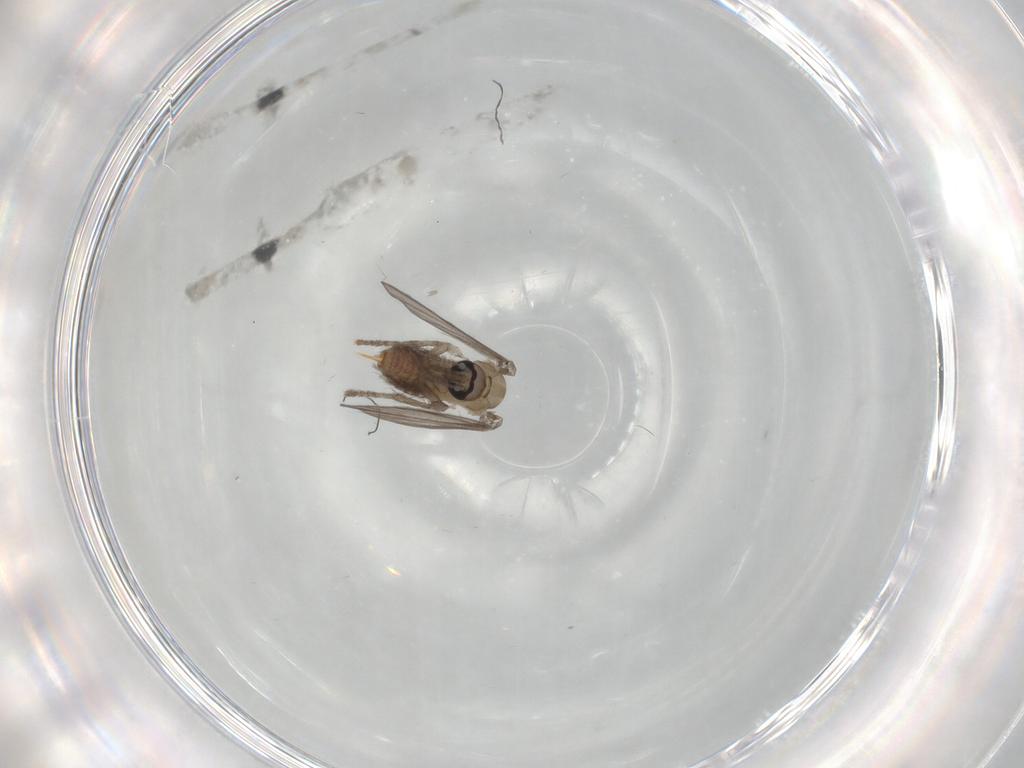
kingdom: Animalia
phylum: Arthropoda
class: Insecta
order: Diptera
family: Psychodidae
